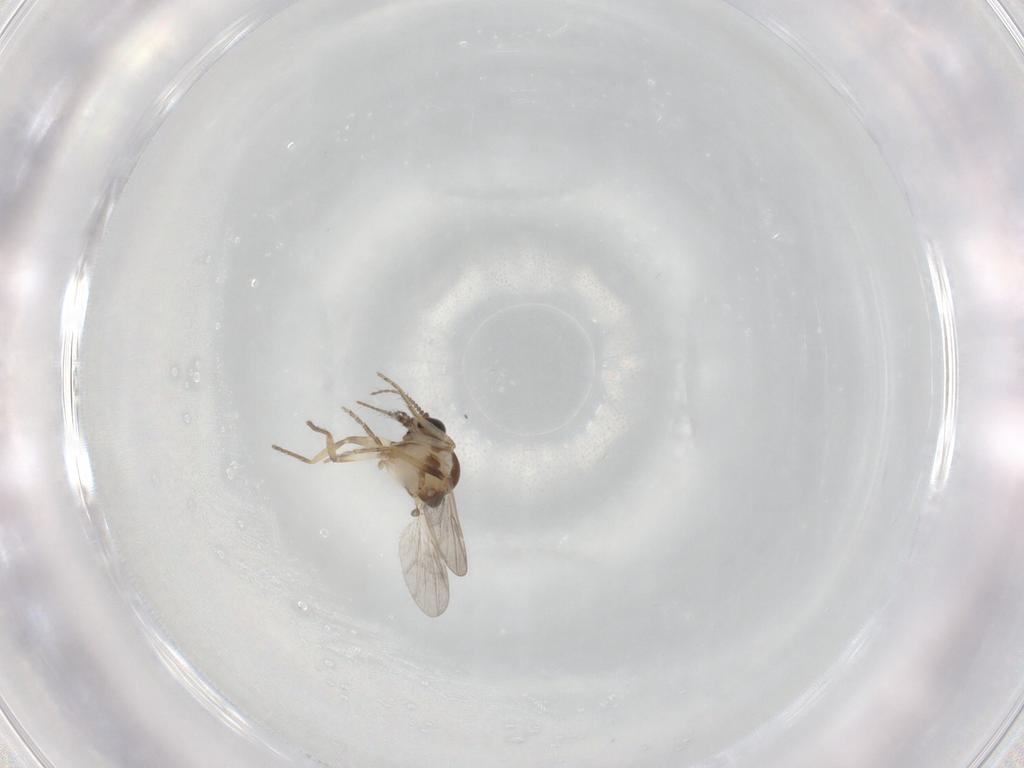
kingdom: Animalia
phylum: Arthropoda
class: Insecta
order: Diptera
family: Ceratopogonidae
